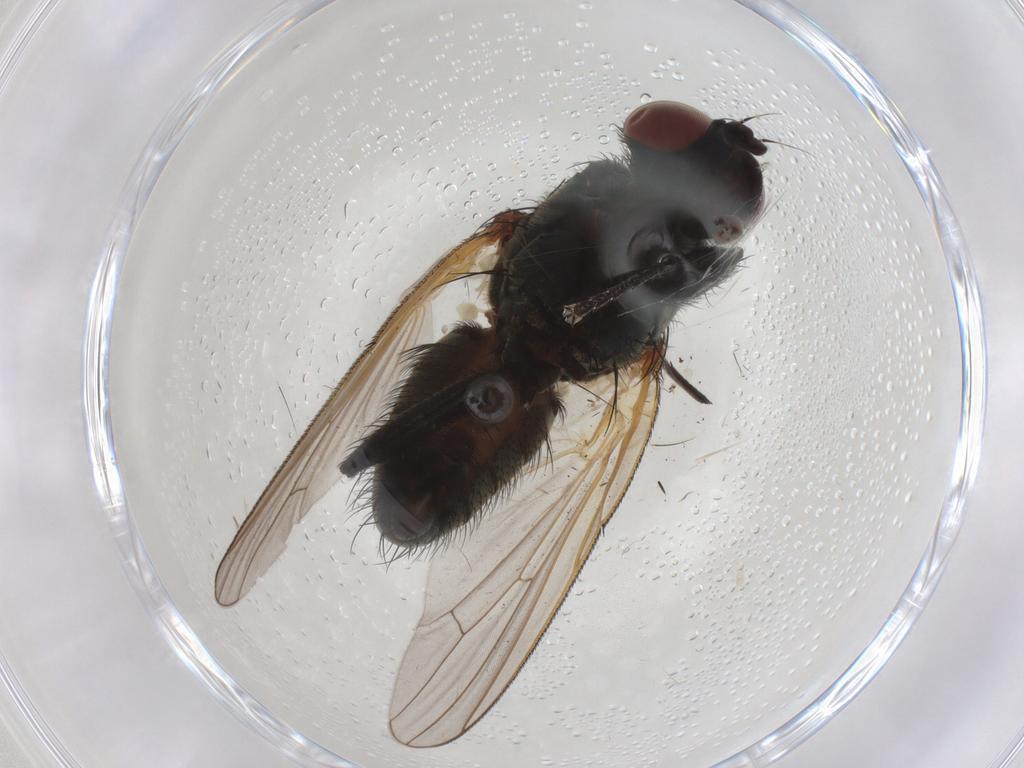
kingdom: Animalia
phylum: Arthropoda
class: Insecta
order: Diptera
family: Anthomyiidae
